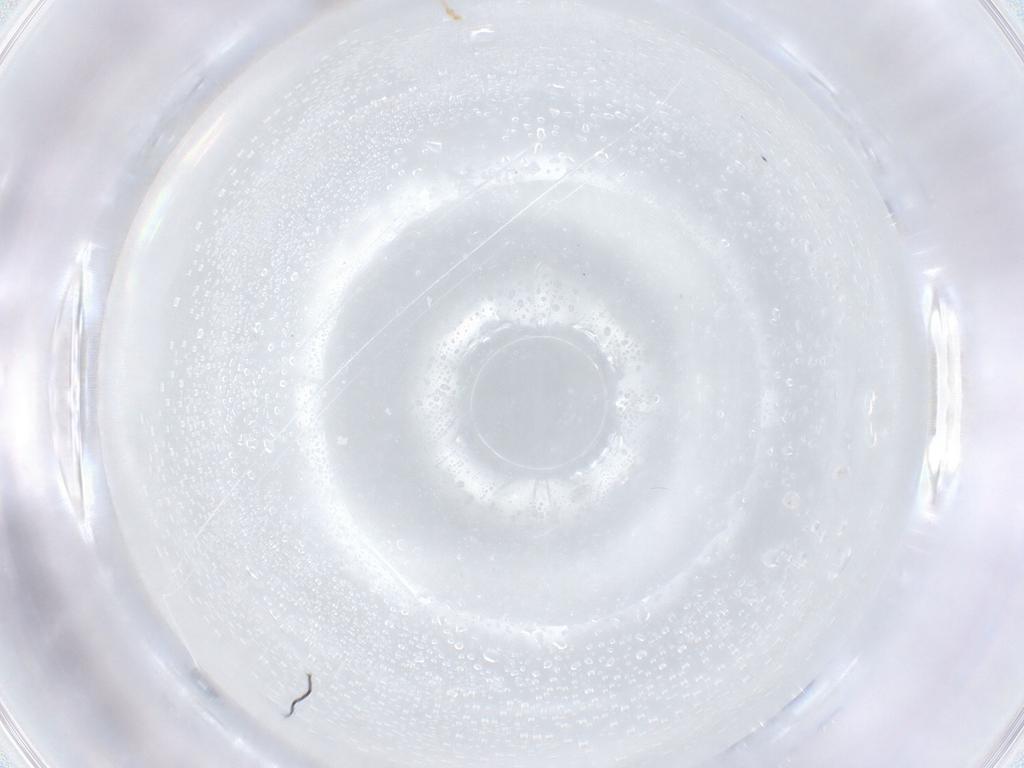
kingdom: Animalia
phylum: Arthropoda
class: Insecta
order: Diptera
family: Cecidomyiidae
